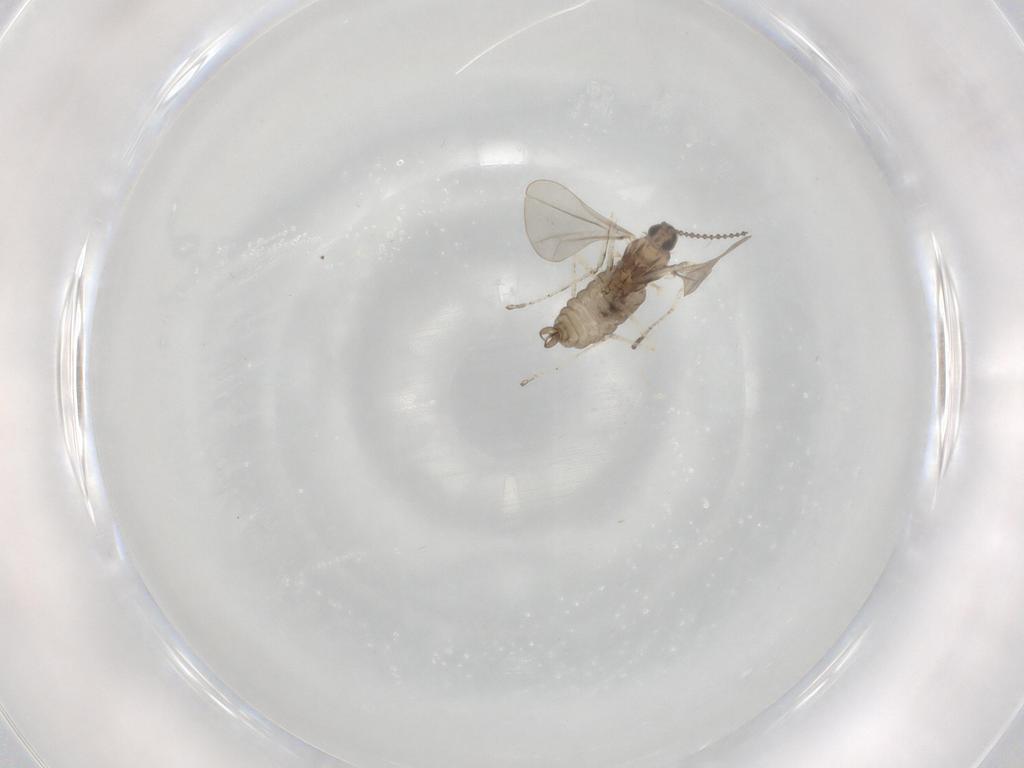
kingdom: Animalia
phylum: Arthropoda
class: Insecta
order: Diptera
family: Cecidomyiidae
